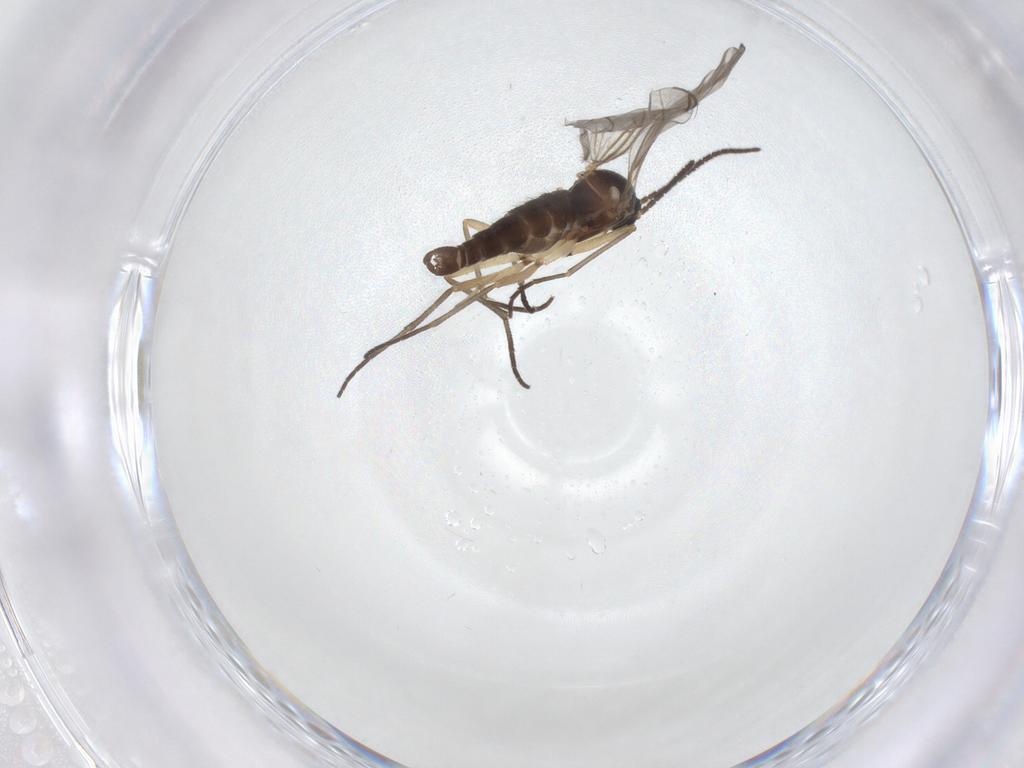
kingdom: Animalia
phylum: Arthropoda
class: Insecta
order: Diptera
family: Sciaridae
